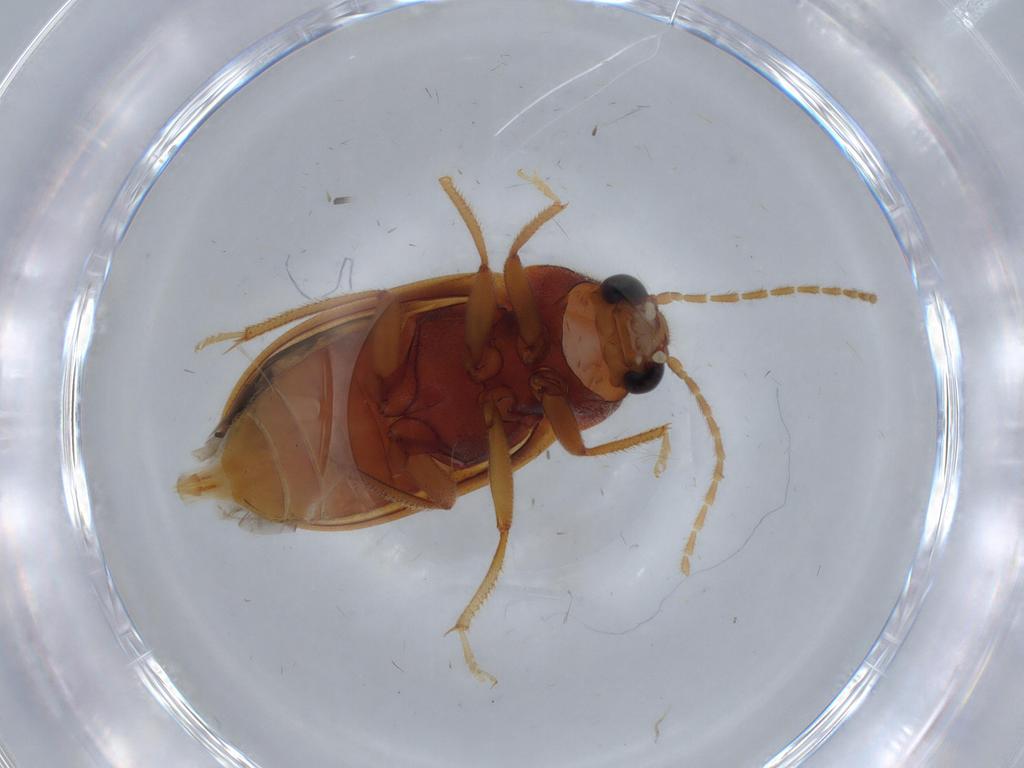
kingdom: Animalia
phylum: Arthropoda
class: Insecta
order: Coleoptera
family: Ptilodactylidae
